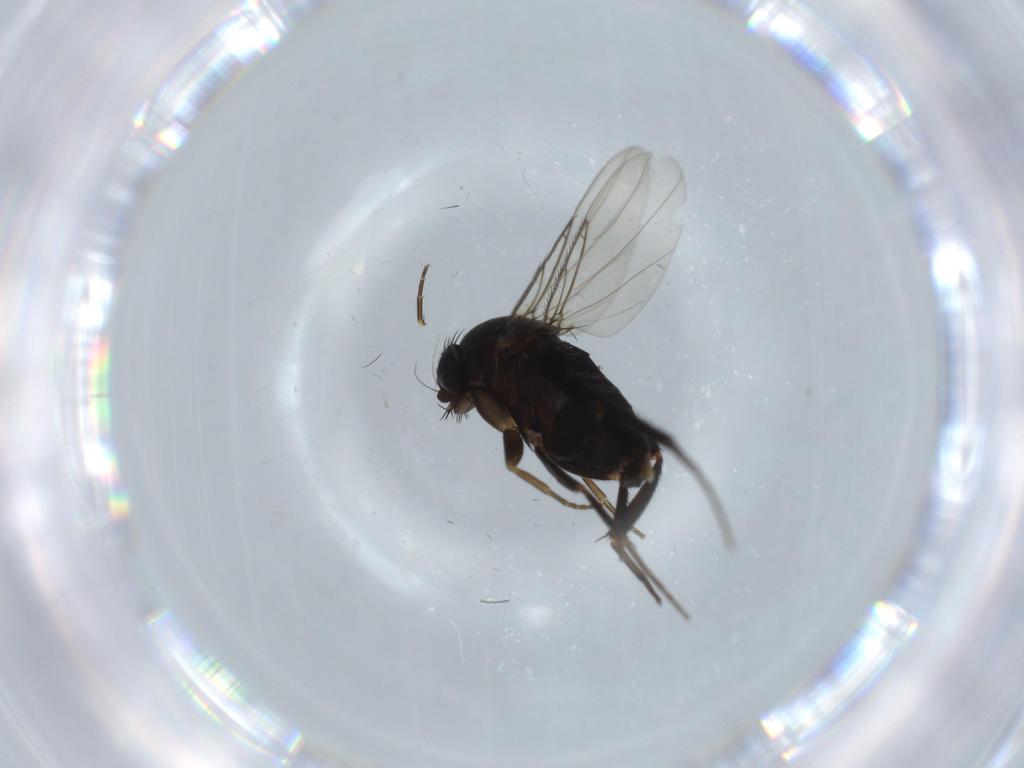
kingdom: Animalia
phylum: Arthropoda
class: Insecta
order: Diptera
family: Phoridae
